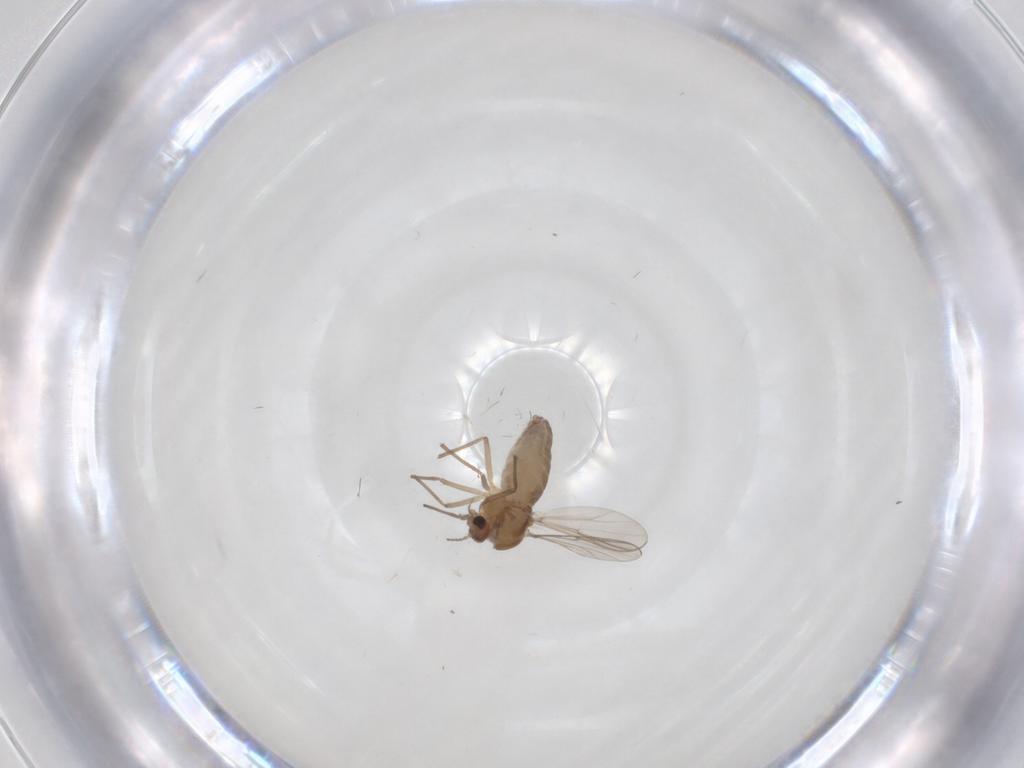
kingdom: Animalia
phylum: Arthropoda
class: Insecta
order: Diptera
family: Chironomidae
